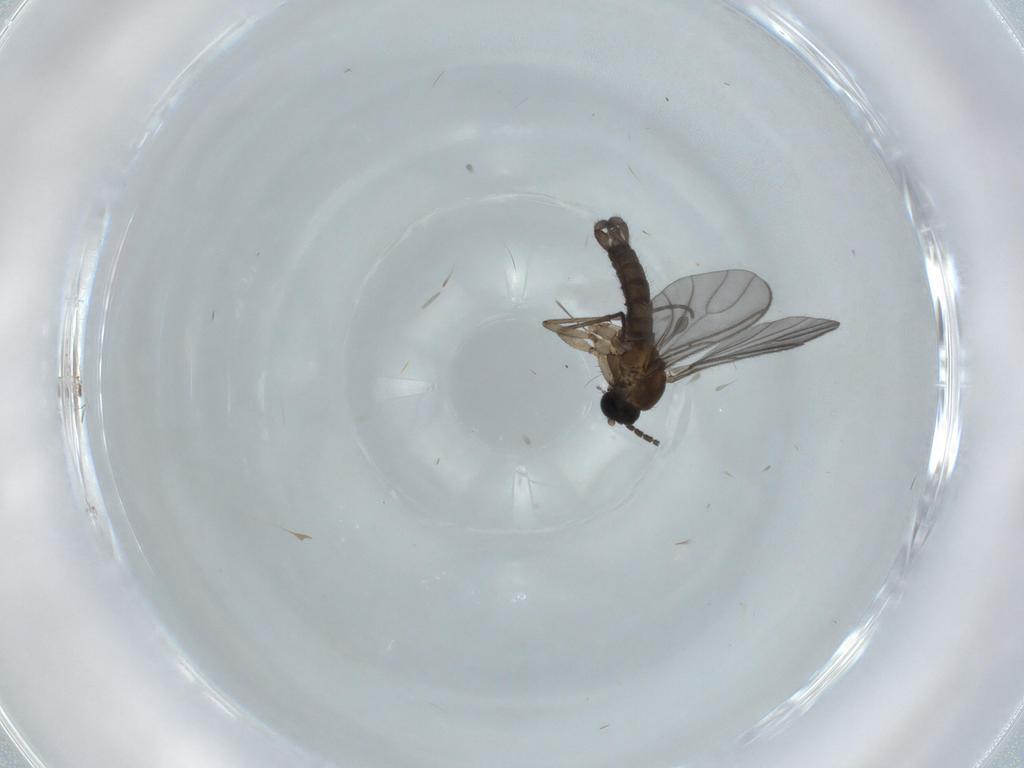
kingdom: Animalia
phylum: Arthropoda
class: Insecta
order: Diptera
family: Sciaridae
